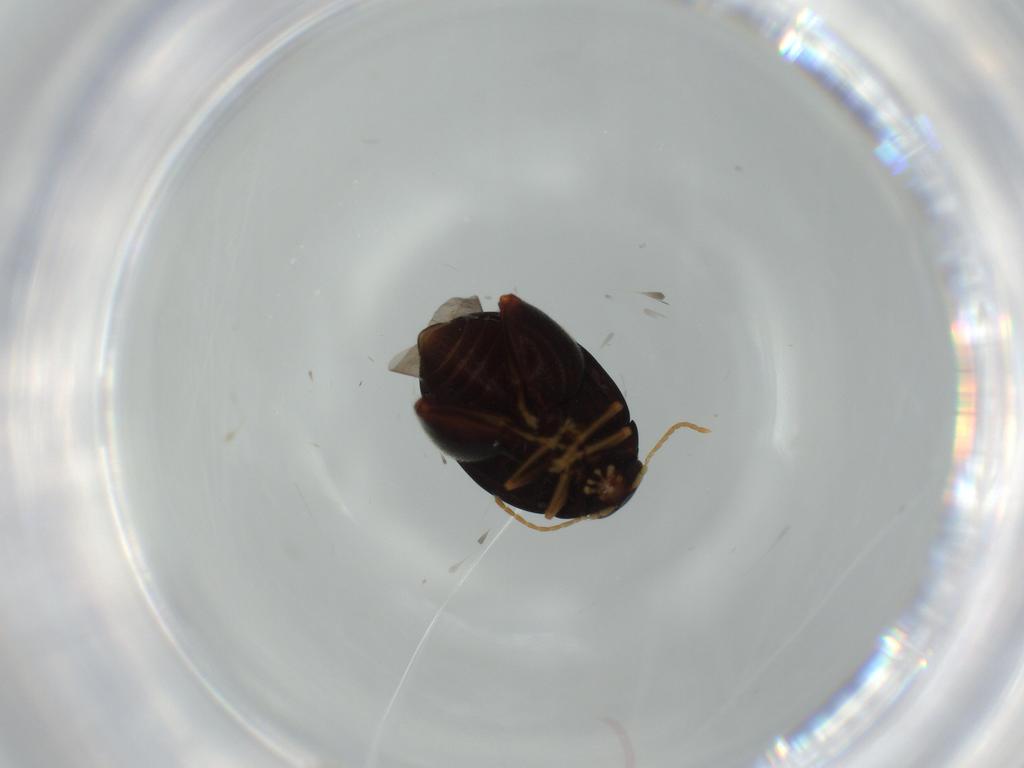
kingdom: Animalia
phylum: Arthropoda
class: Insecta
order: Coleoptera
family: Chrysomelidae
